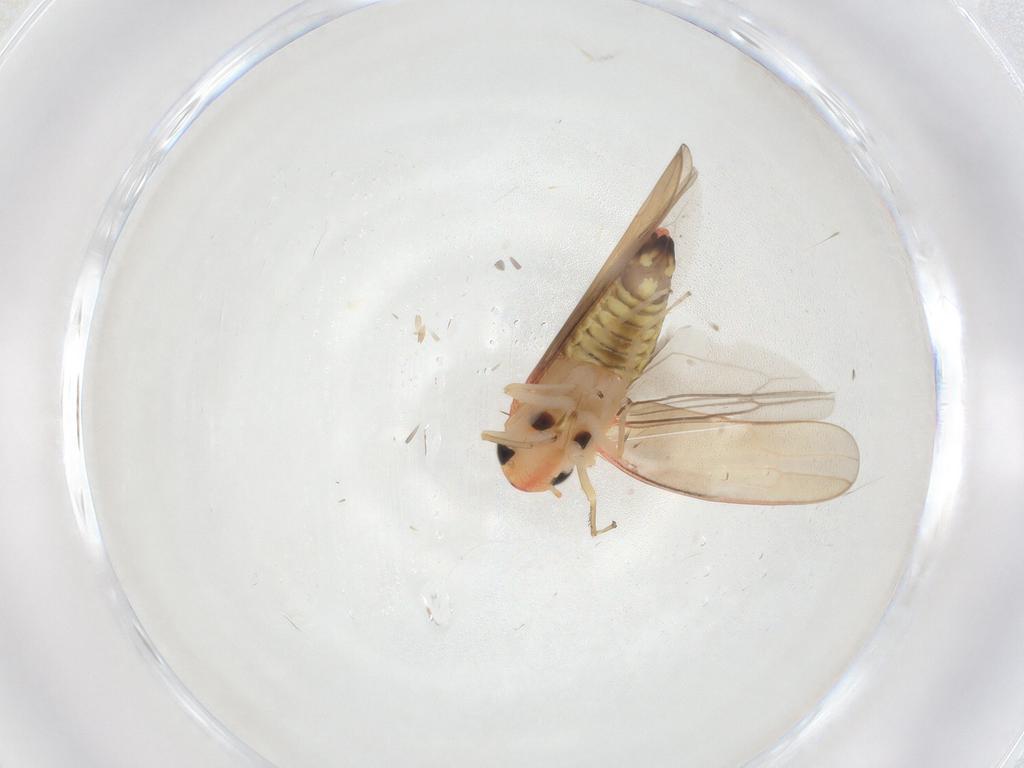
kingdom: Animalia
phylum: Arthropoda
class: Insecta
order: Hemiptera
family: Cicadellidae
